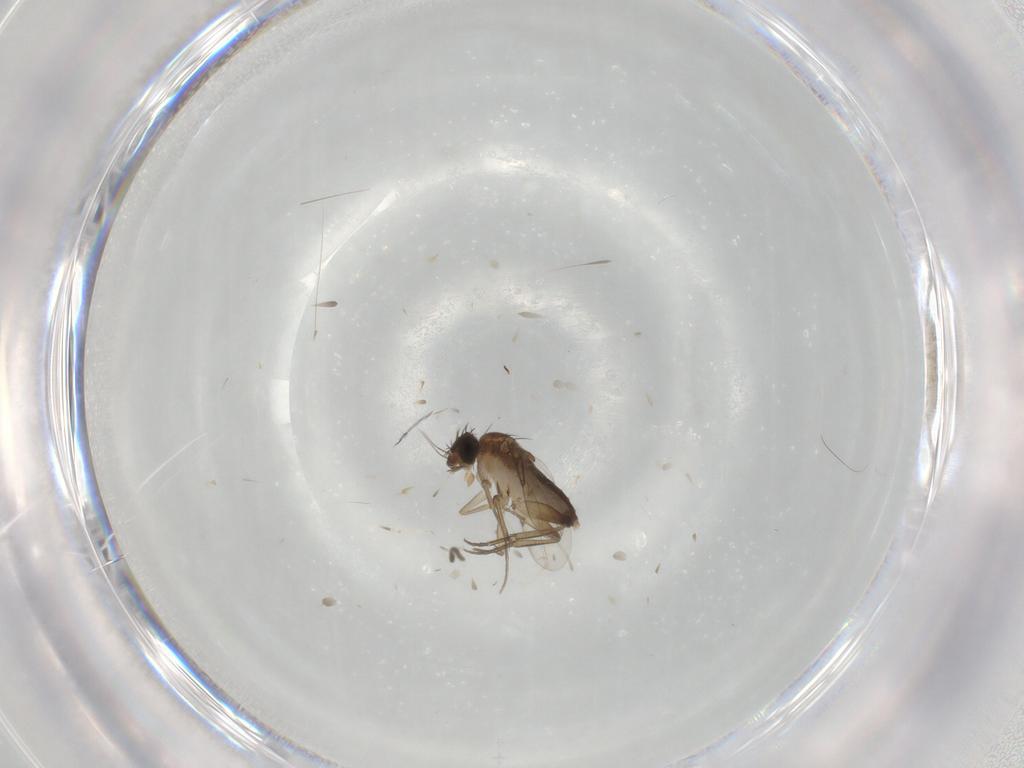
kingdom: Animalia
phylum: Arthropoda
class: Insecta
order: Diptera
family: Phoridae
